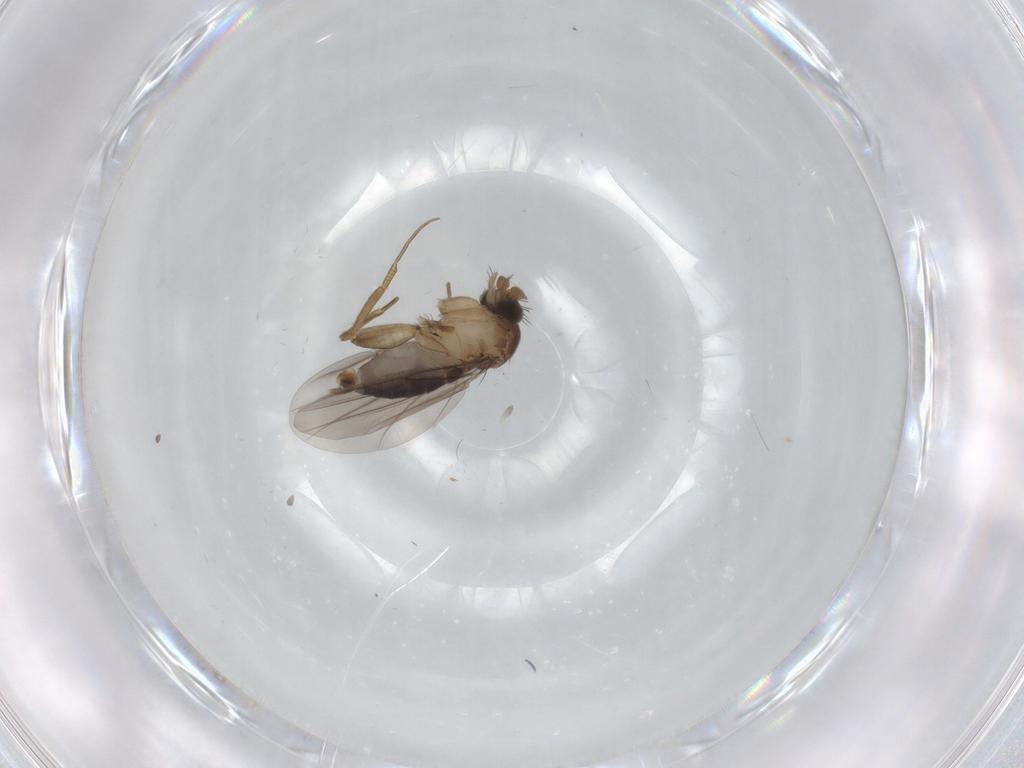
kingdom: Animalia
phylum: Arthropoda
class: Insecta
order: Diptera
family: Phoridae
